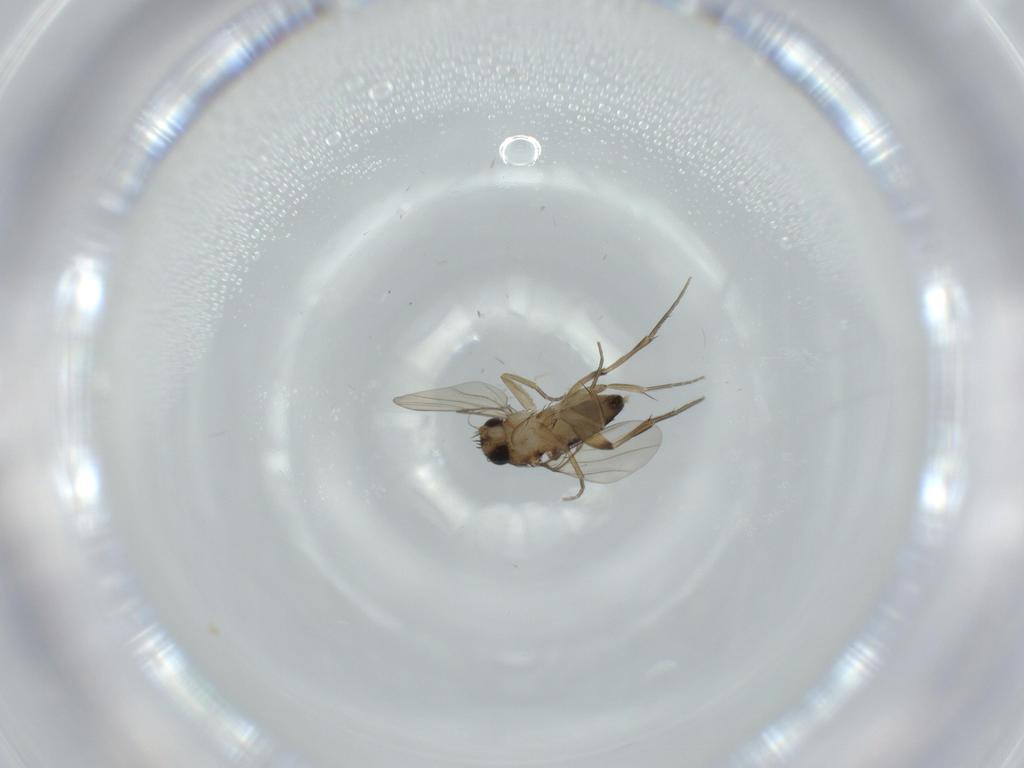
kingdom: Animalia
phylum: Arthropoda
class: Insecta
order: Diptera
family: Phoridae
